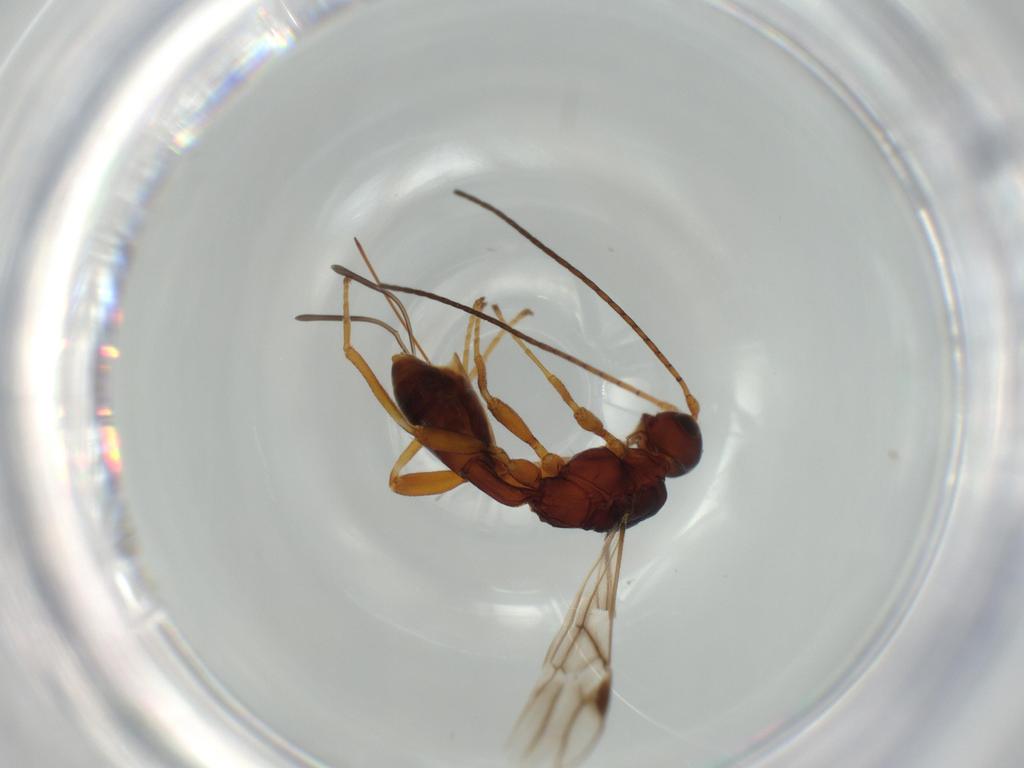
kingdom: Animalia
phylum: Arthropoda
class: Insecta
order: Hymenoptera
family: Braconidae
